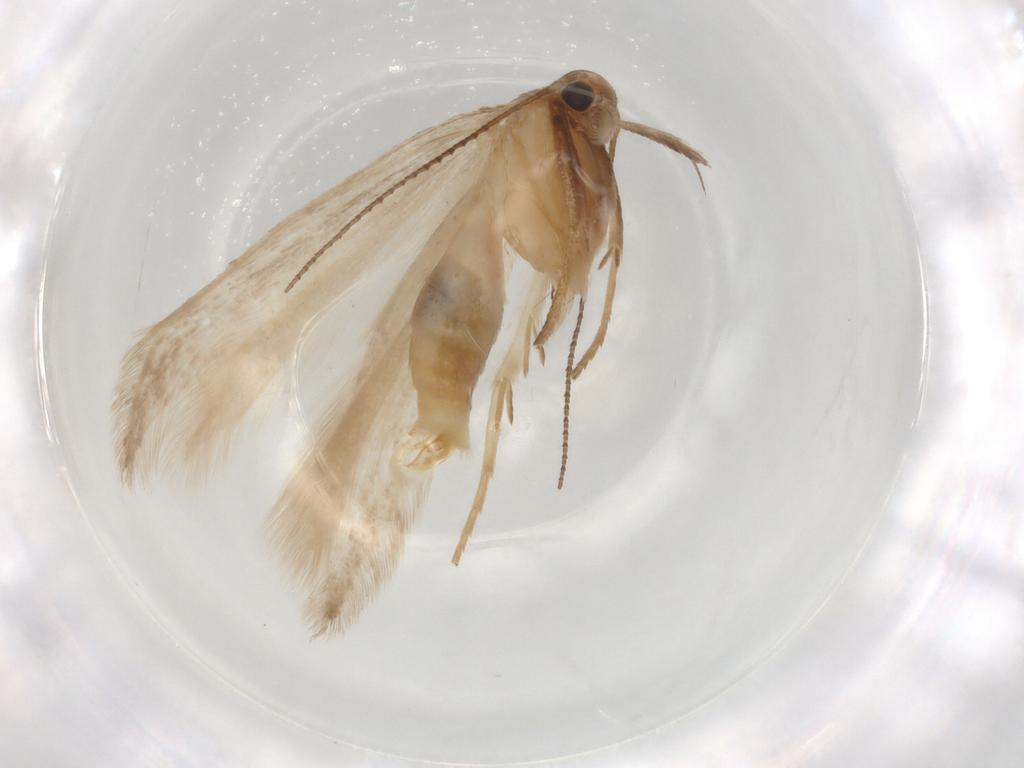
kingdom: Animalia
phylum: Arthropoda
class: Insecta
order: Lepidoptera
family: Gelechiidae
